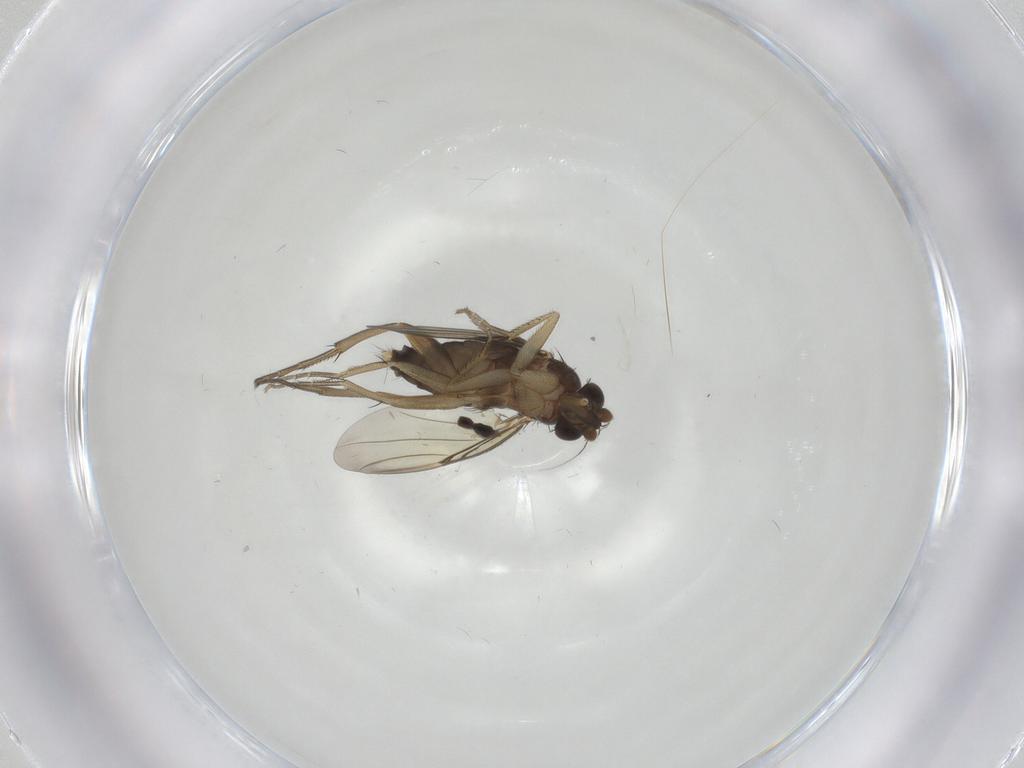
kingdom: Animalia
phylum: Arthropoda
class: Insecta
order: Diptera
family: Phoridae
